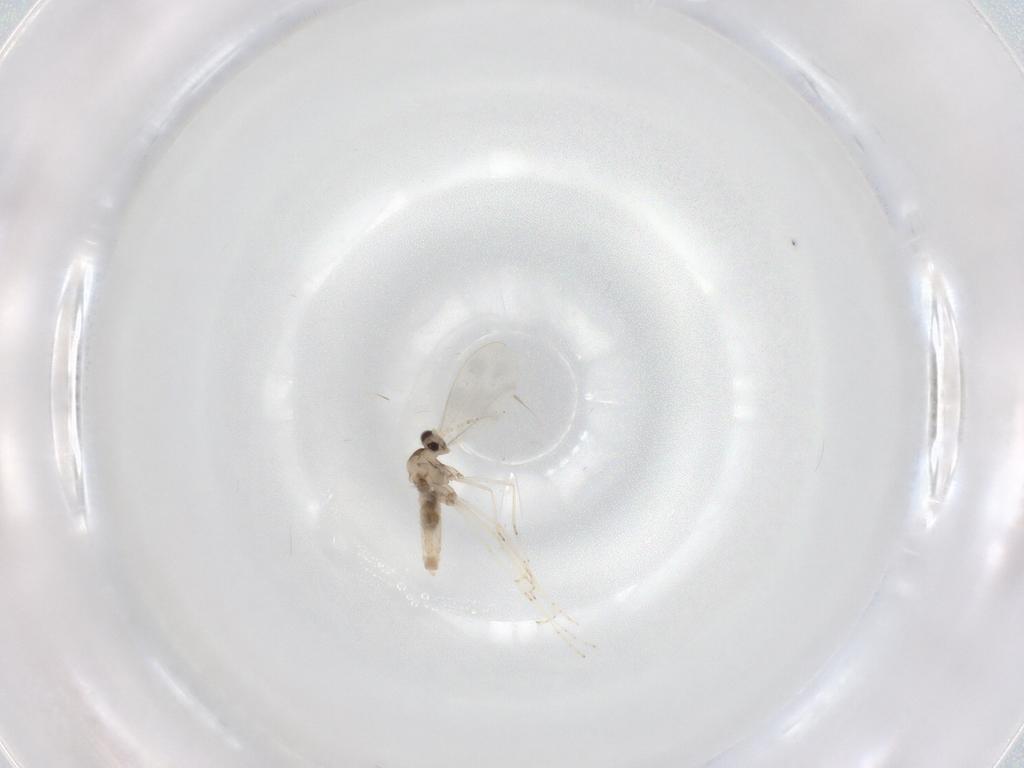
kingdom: Animalia
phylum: Arthropoda
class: Insecta
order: Diptera
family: Cecidomyiidae
